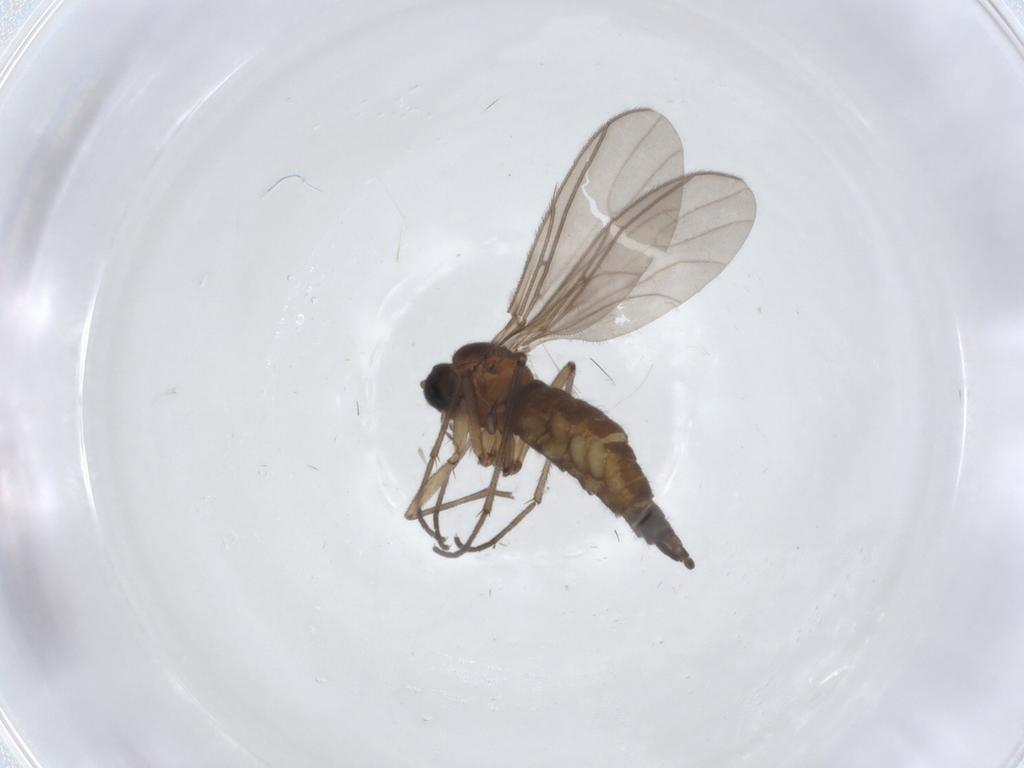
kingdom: Animalia
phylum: Arthropoda
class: Insecta
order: Diptera
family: Sciaridae
